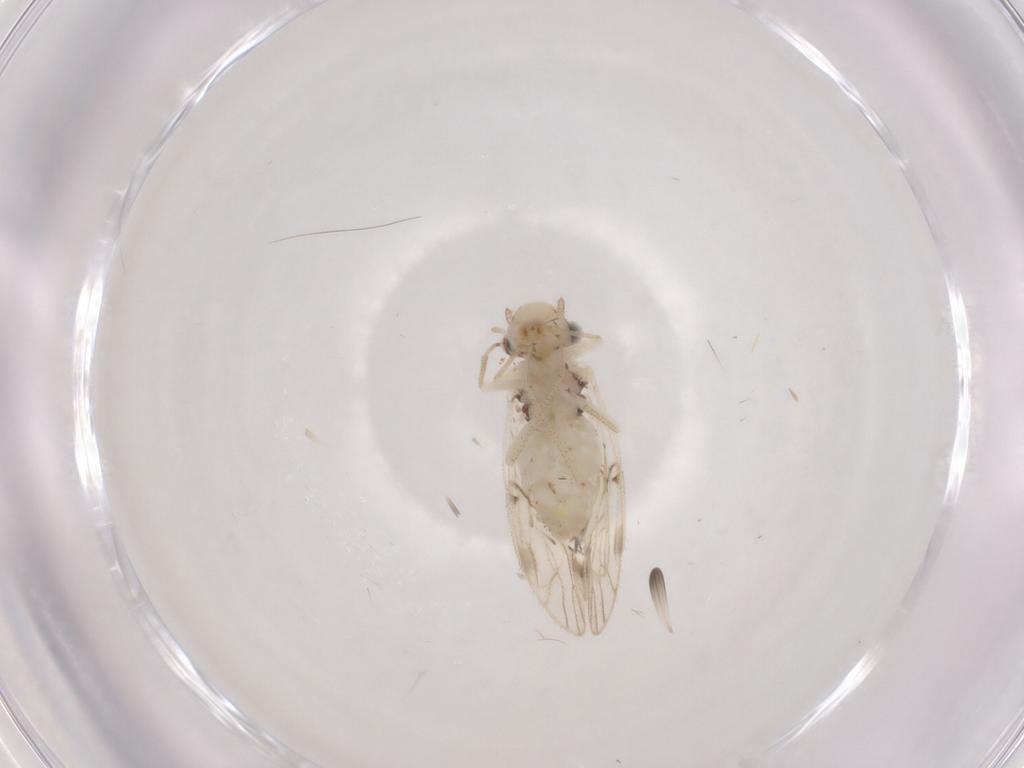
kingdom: Animalia
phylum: Arthropoda
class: Insecta
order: Psocodea
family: Caeciliusidae
